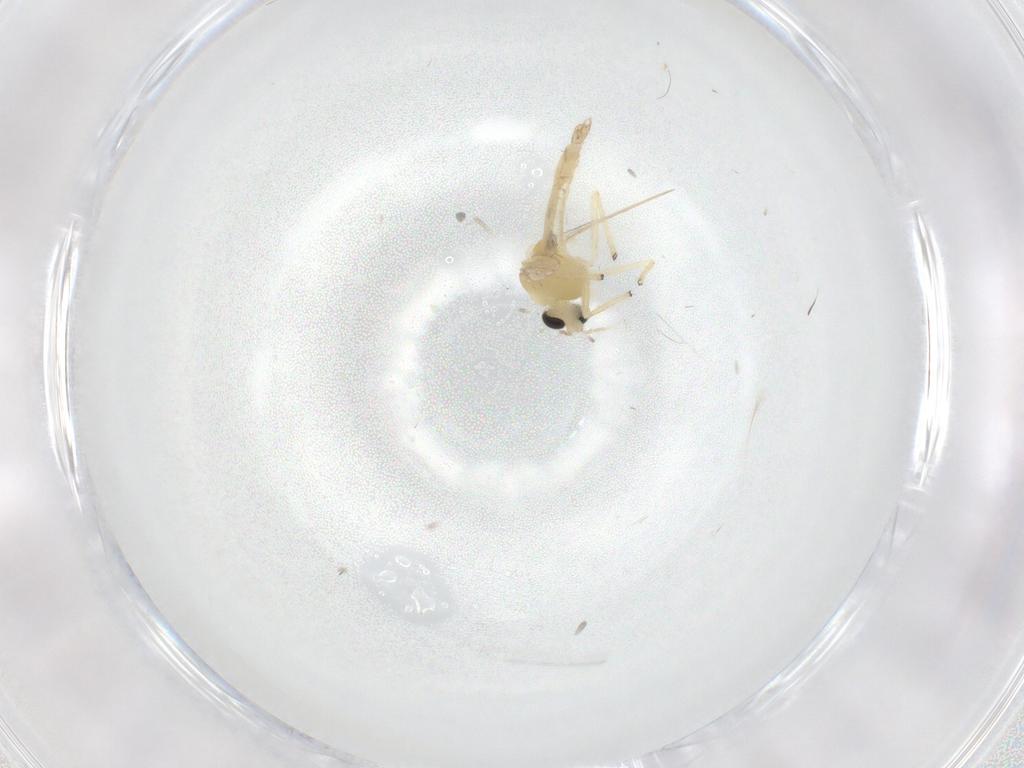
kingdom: Animalia
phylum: Arthropoda
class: Insecta
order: Diptera
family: Chironomidae
